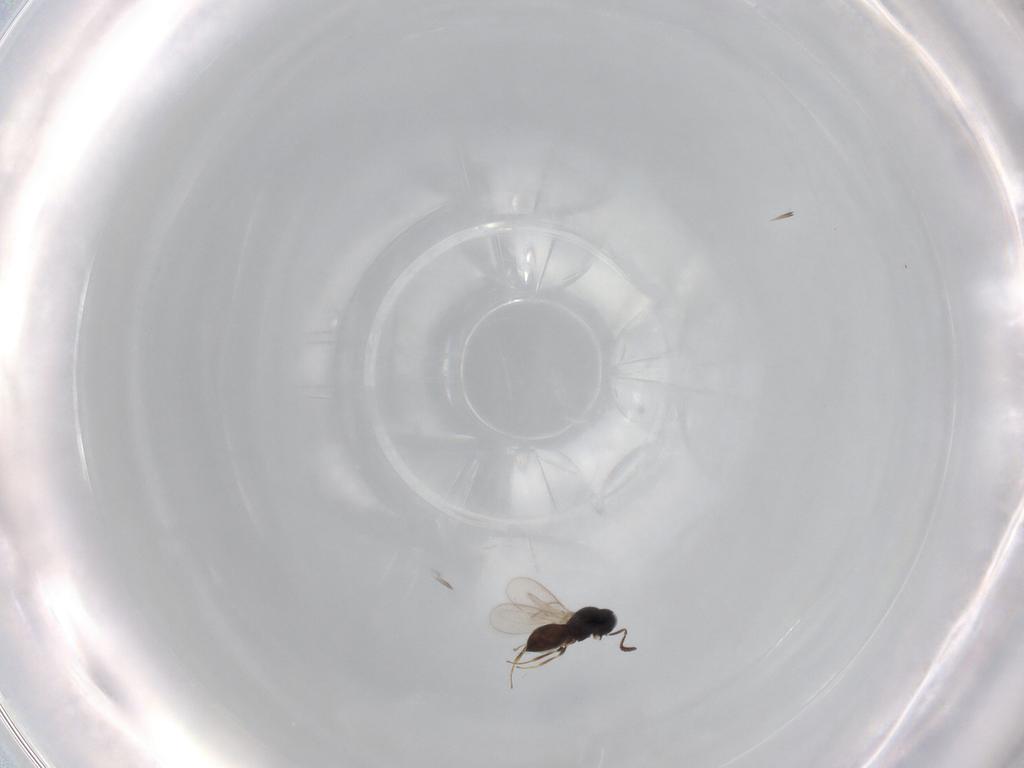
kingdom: Animalia
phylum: Arthropoda
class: Insecta
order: Hymenoptera
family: Scelionidae
